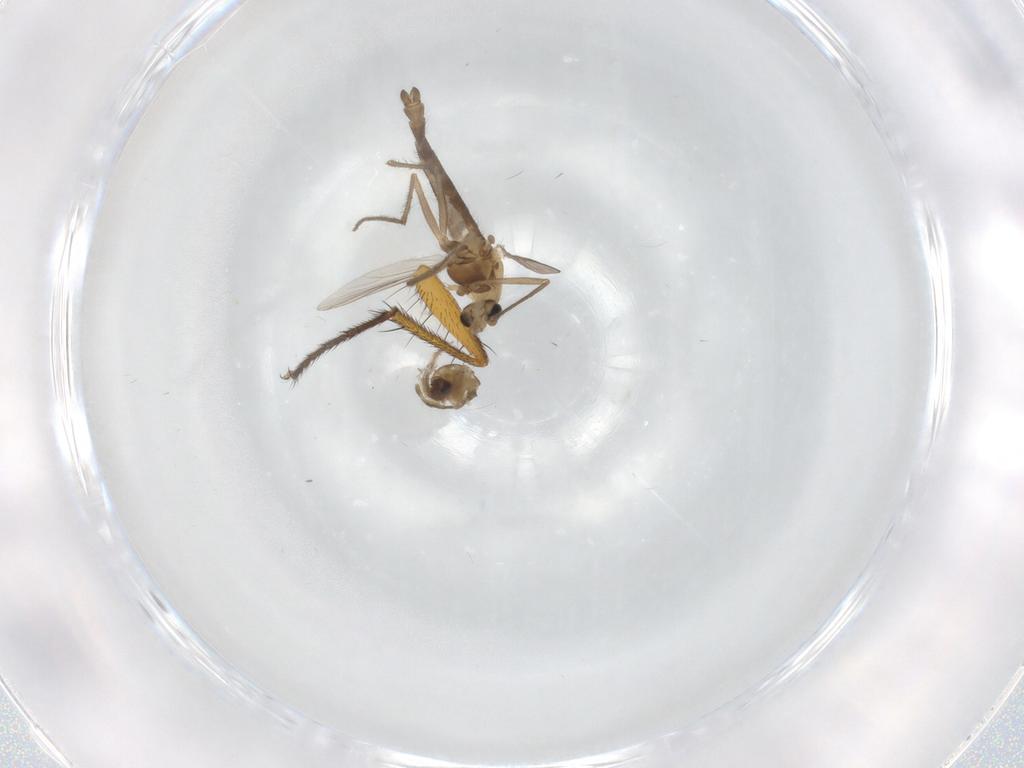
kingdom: Animalia
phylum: Arthropoda
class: Insecta
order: Diptera
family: Chironomidae
